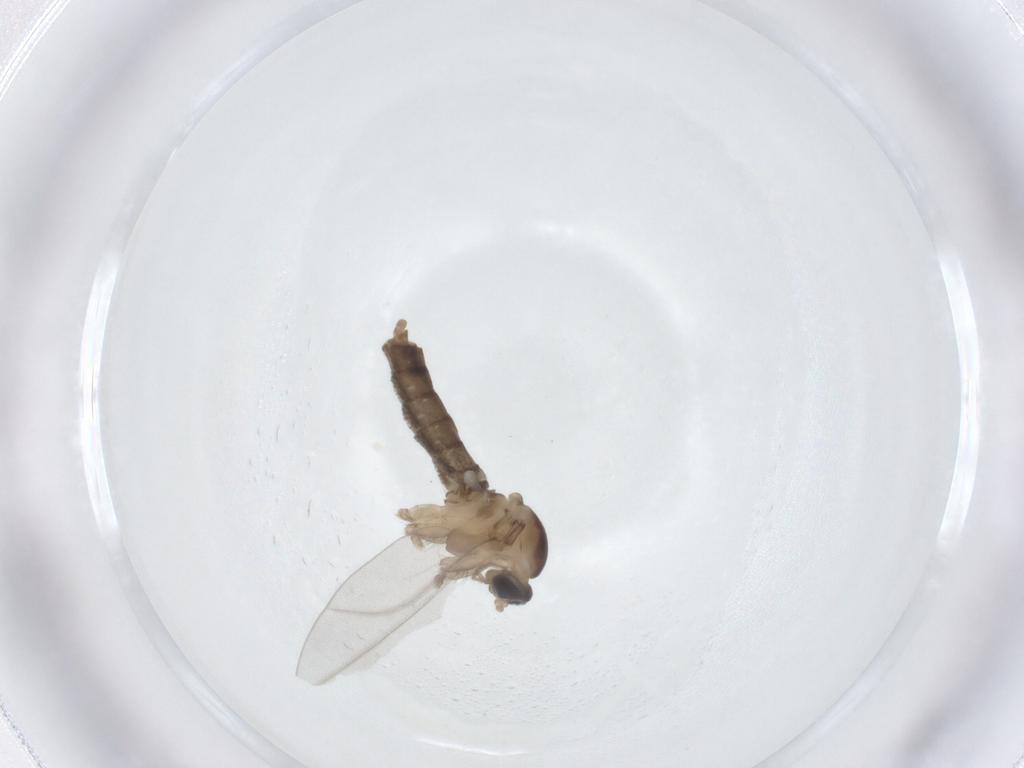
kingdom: Animalia
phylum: Arthropoda
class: Insecta
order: Diptera
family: Cecidomyiidae
